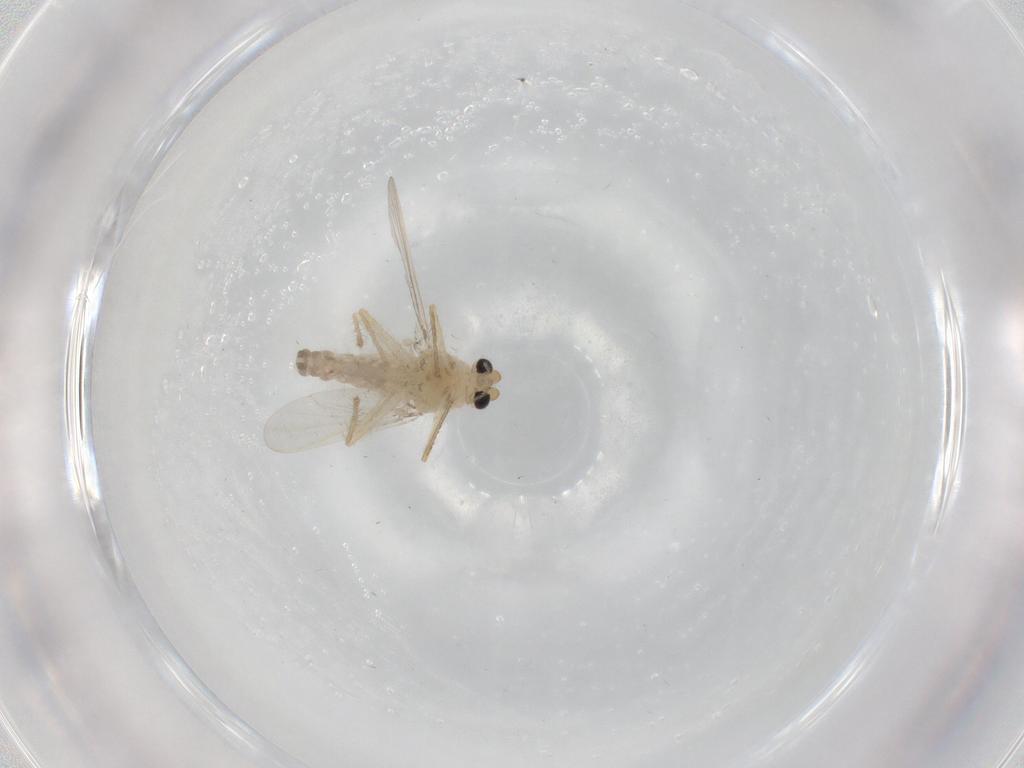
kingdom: Animalia
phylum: Arthropoda
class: Insecta
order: Diptera
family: Chironomidae
